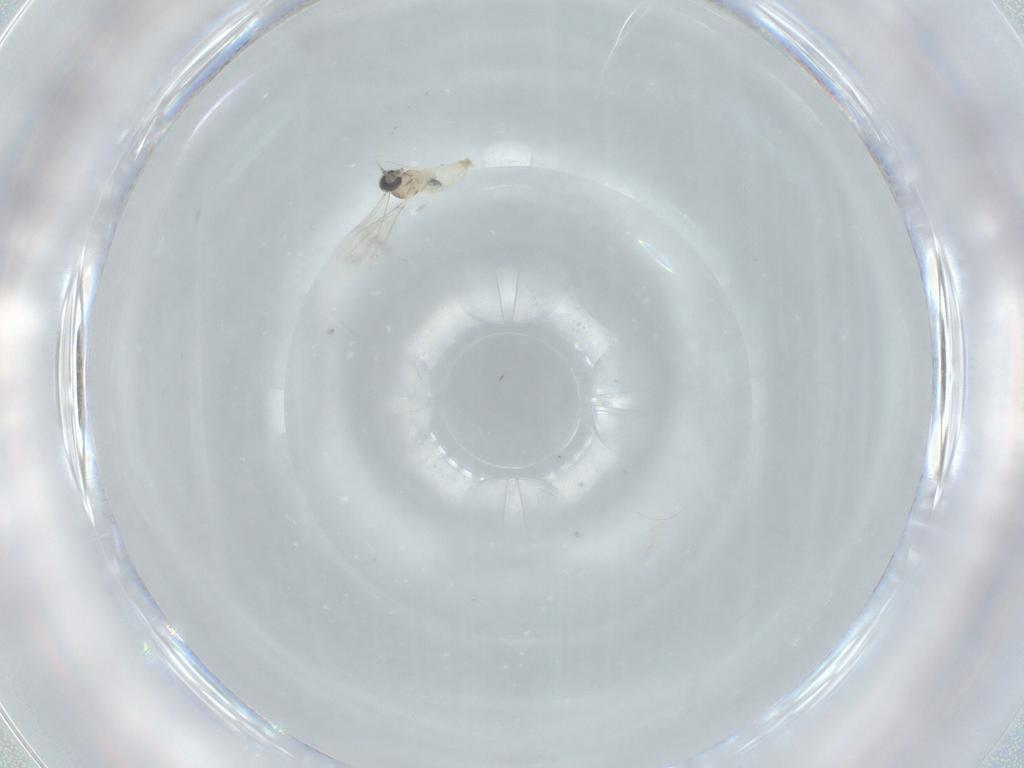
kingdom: Animalia
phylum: Arthropoda
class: Insecta
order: Diptera
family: Cecidomyiidae
